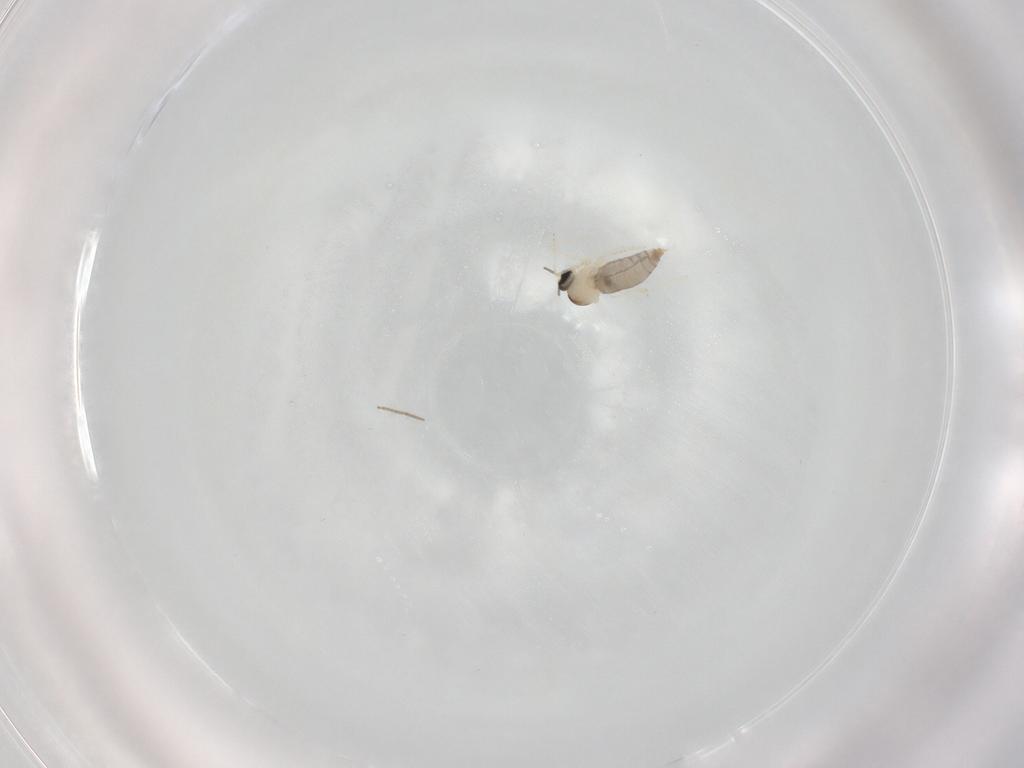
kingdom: Animalia
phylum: Arthropoda
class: Insecta
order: Diptera
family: Cecidomyiidae
